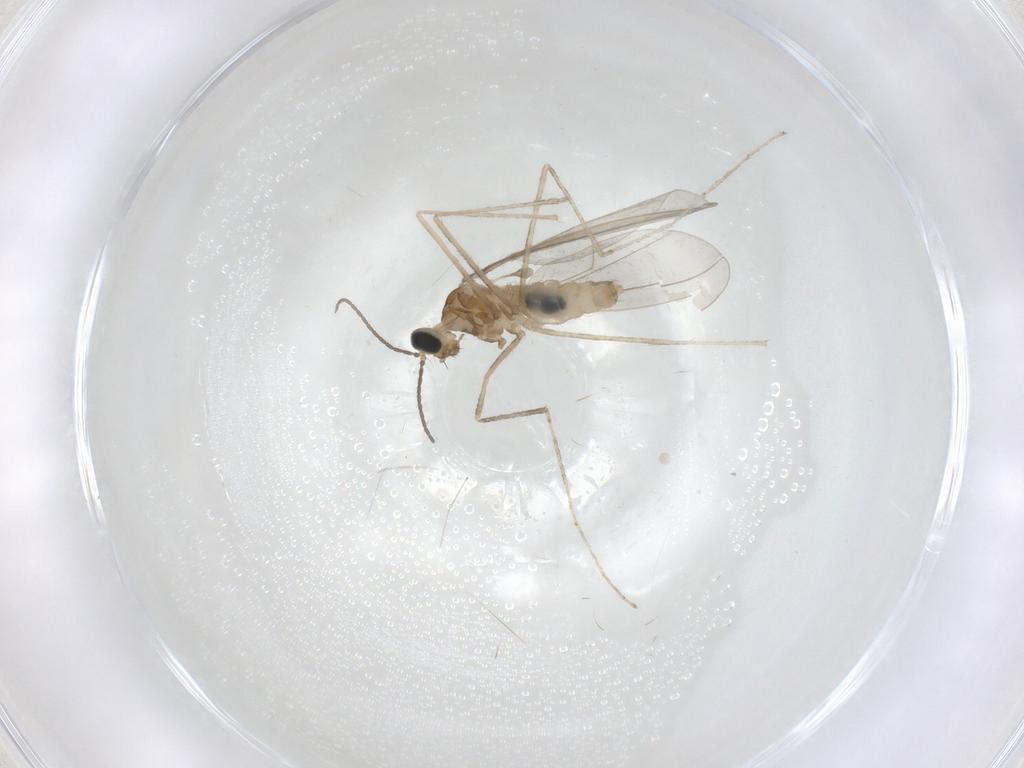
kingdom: Animalia
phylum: Arthropoda
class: Insecta
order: Diptera
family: Cecidomyiidae
